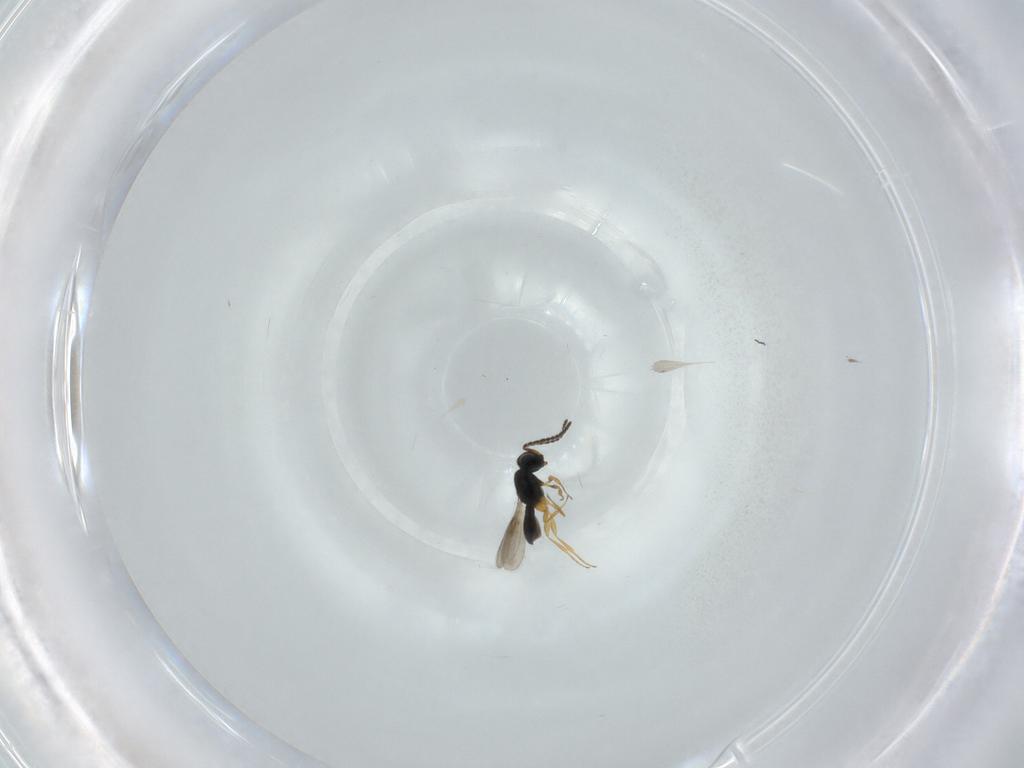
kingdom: Animalia
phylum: Arthropoda
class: Insecta
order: Hymenoptera
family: Scelionidae
